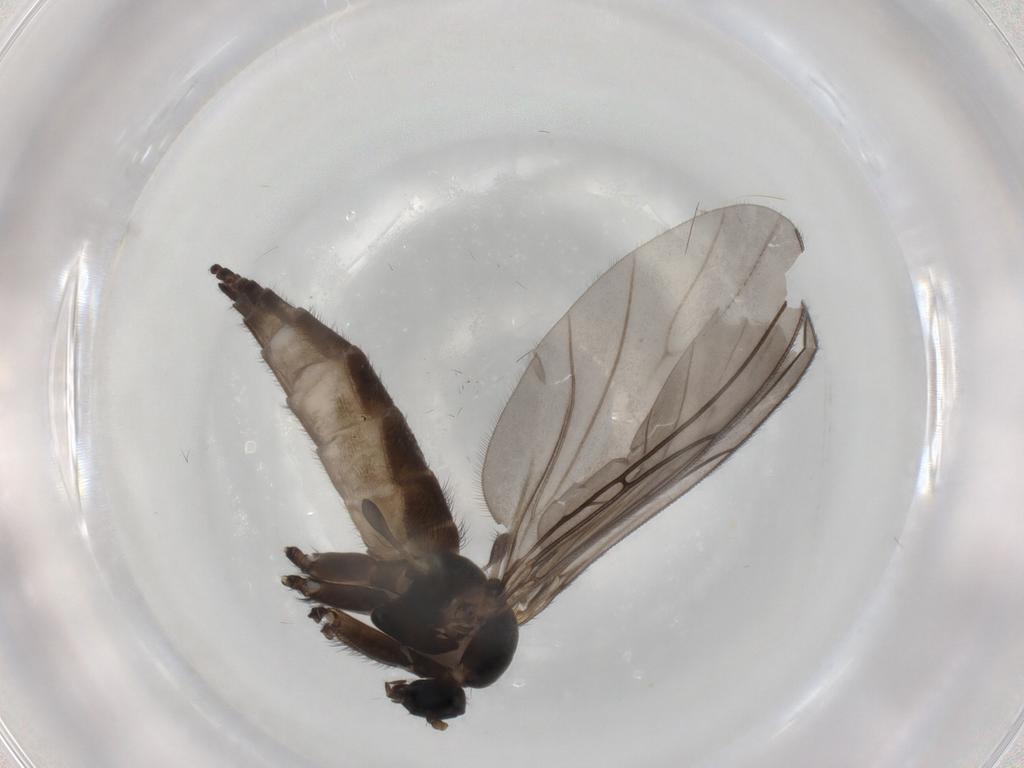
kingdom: Animalia
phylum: Arthropoda
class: Insecta
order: Diptera
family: Sciaridae
